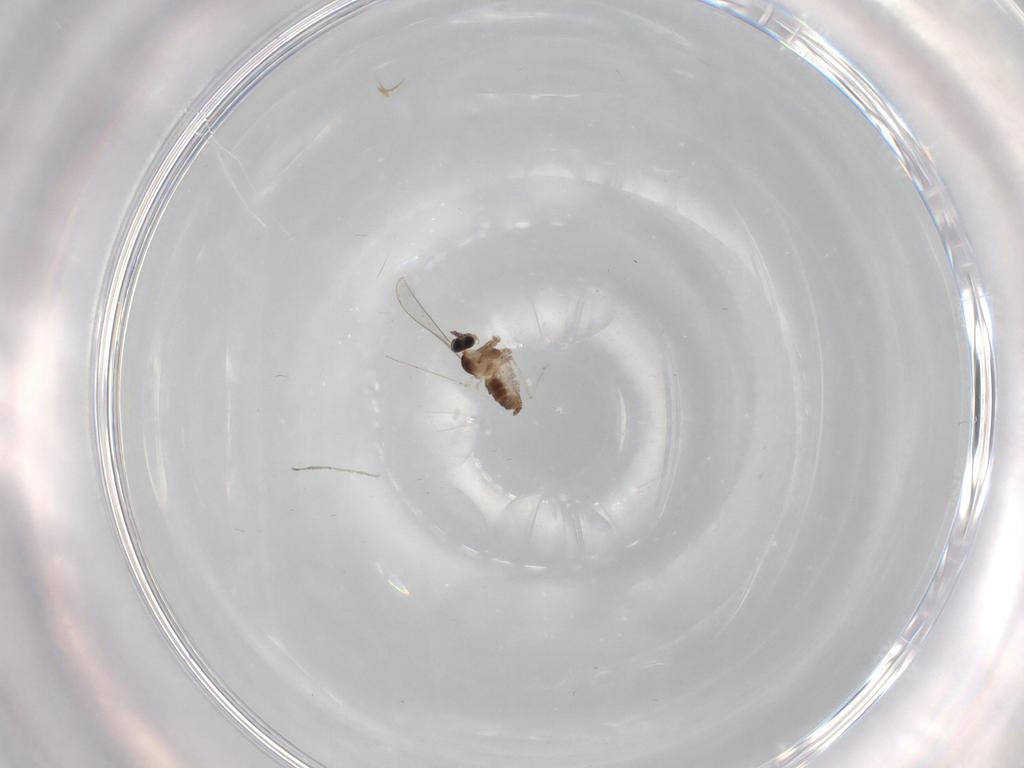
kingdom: Animalia
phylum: Arthropoda
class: Insecta
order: Diptera
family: Cecidomyiidae
